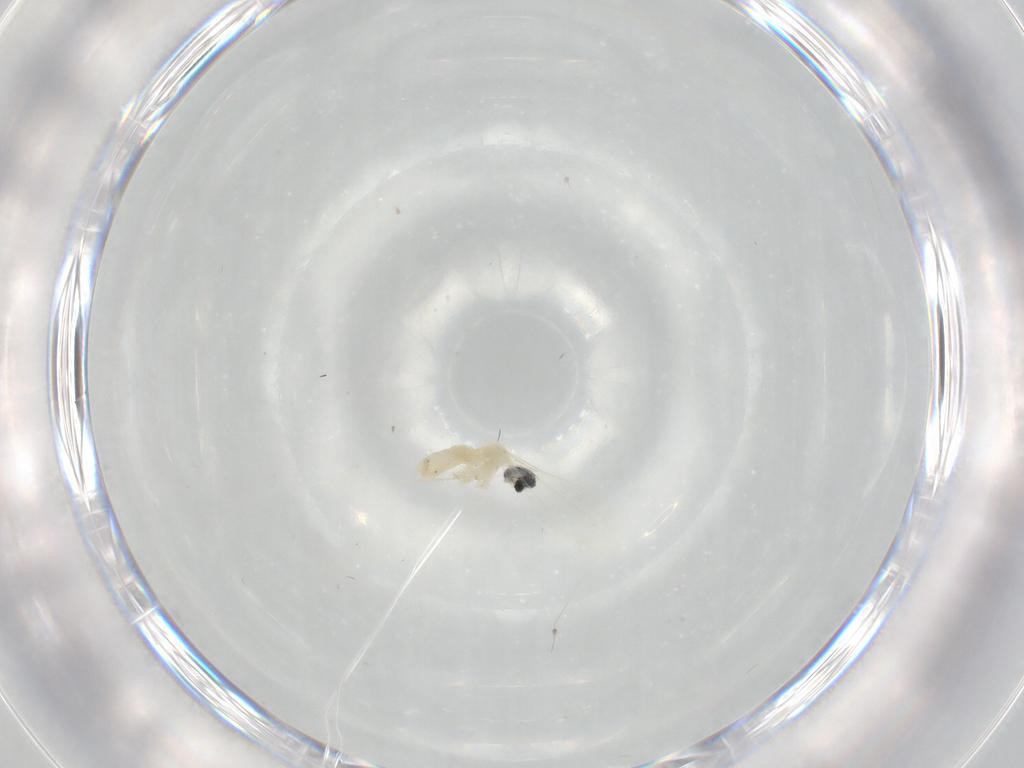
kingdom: Animalia
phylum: Arthropoda
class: Insecta
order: Diptera
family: Cecidomyiidae
